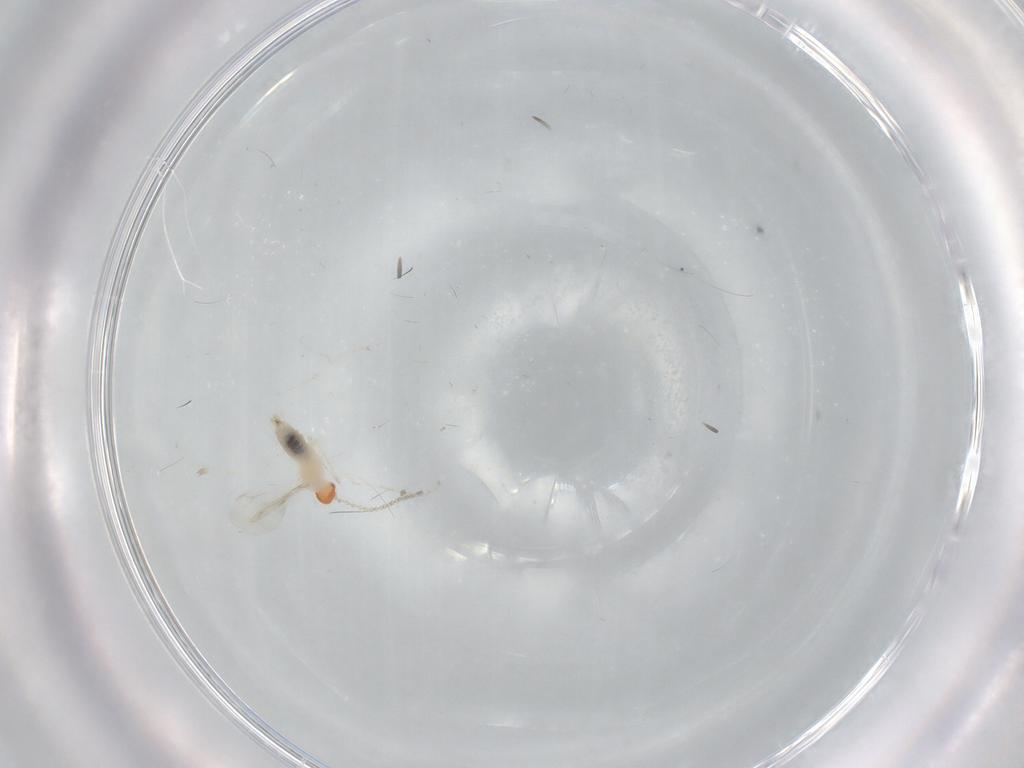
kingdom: Animalia
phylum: Arthropoda
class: Insecta
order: Diptera
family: Cecidomyiidae
